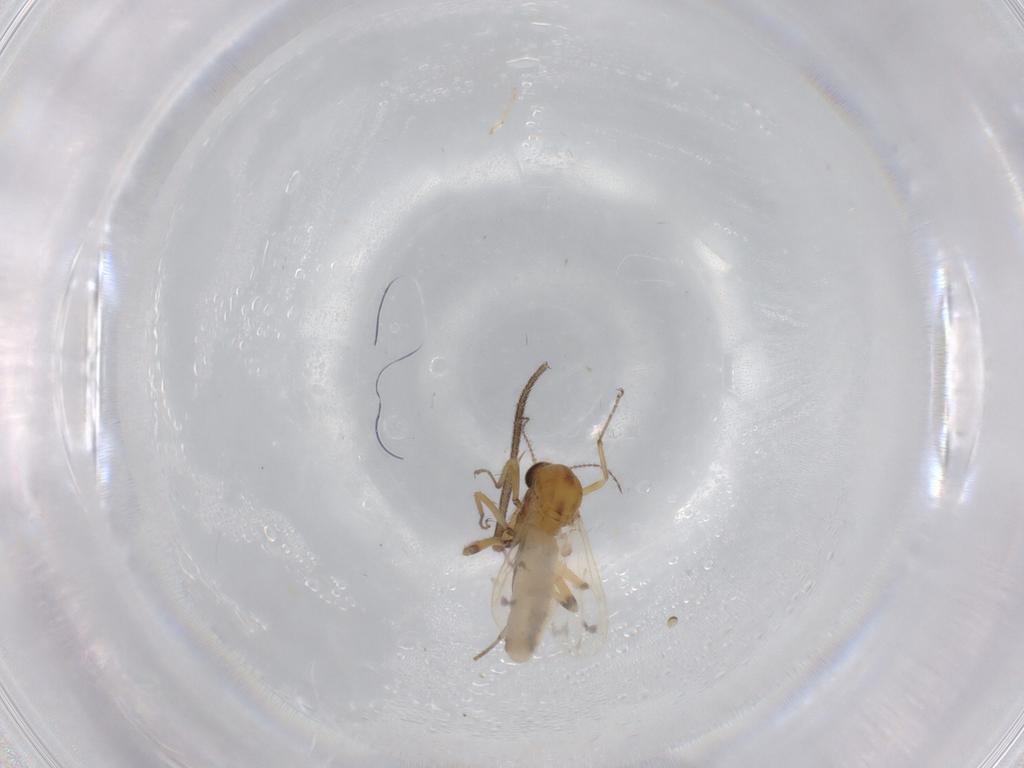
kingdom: Animalia
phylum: Arthropoda
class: Insecta
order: Diptera
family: Ceratopogonidae
